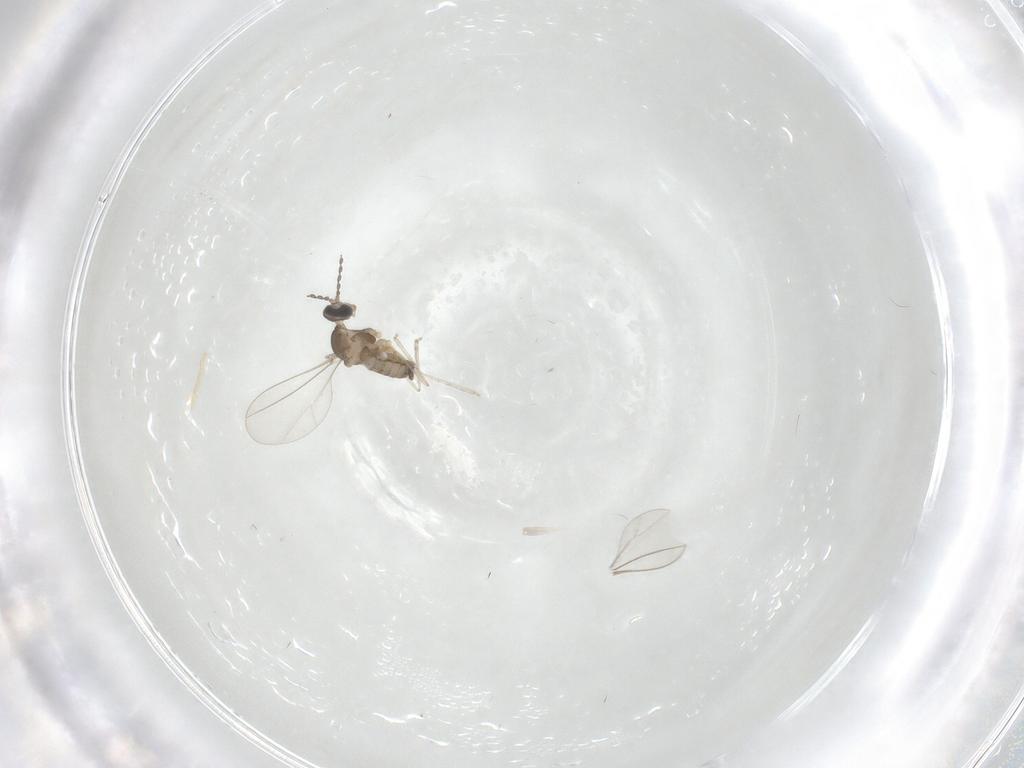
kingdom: Animalia
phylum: Arthropoda
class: Insecta
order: Diptera
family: Cecidomyiidae
